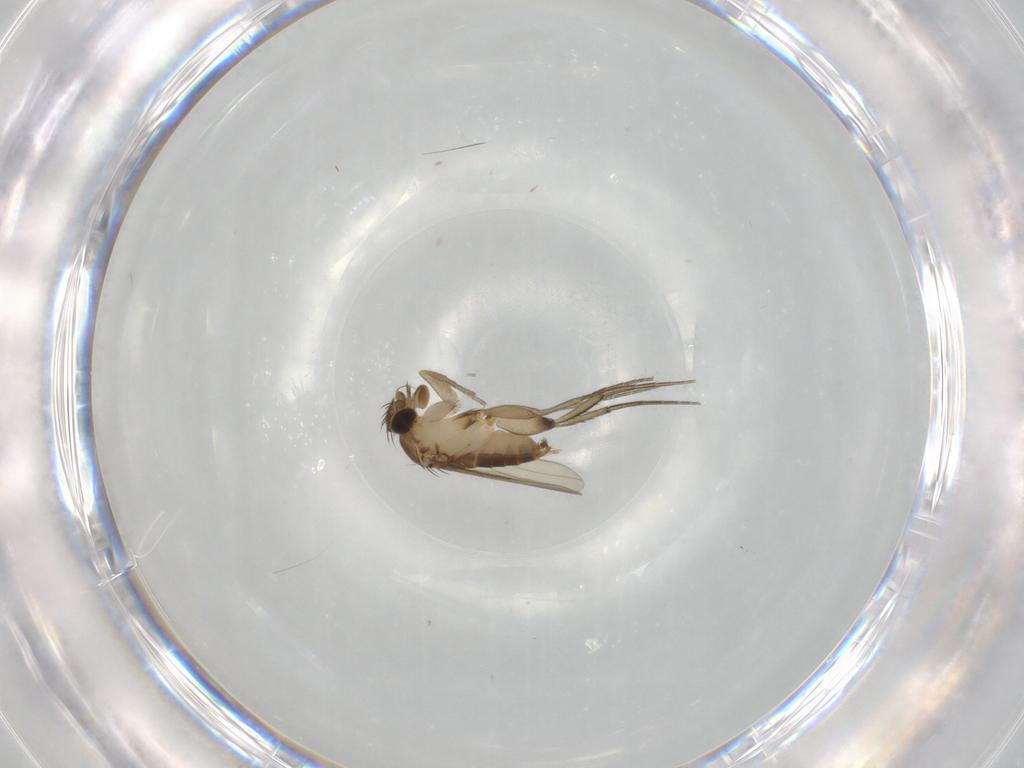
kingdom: Animalia
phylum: Arthropoda
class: Insecta
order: Diptera
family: Phoridae
